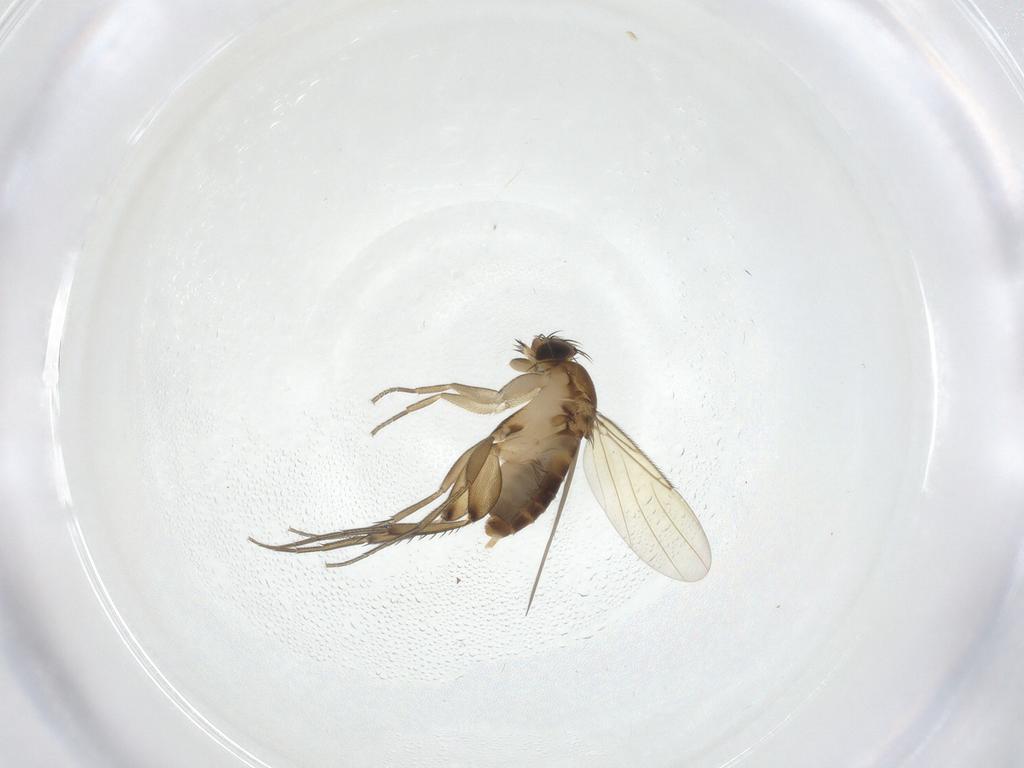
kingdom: Animalia
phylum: Arthropoda
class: Insecta
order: Diptera
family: Phoridae
